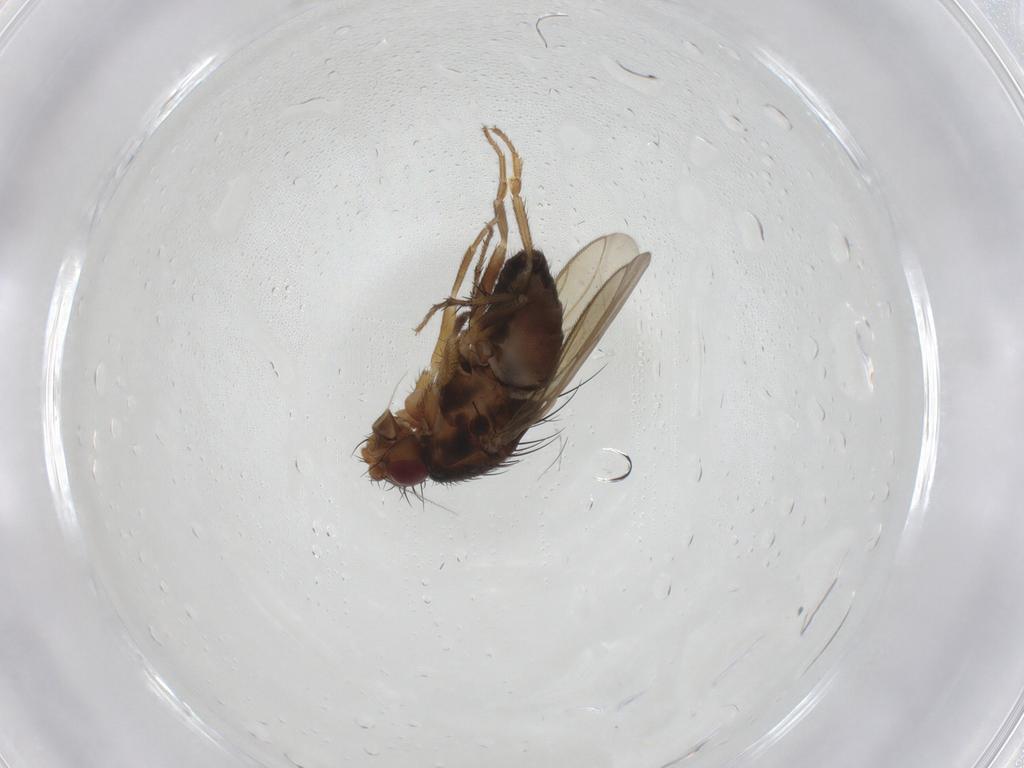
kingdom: Animalia
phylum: Arthropoda
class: Insecta
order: Diptera
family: Sphaeroceridae
